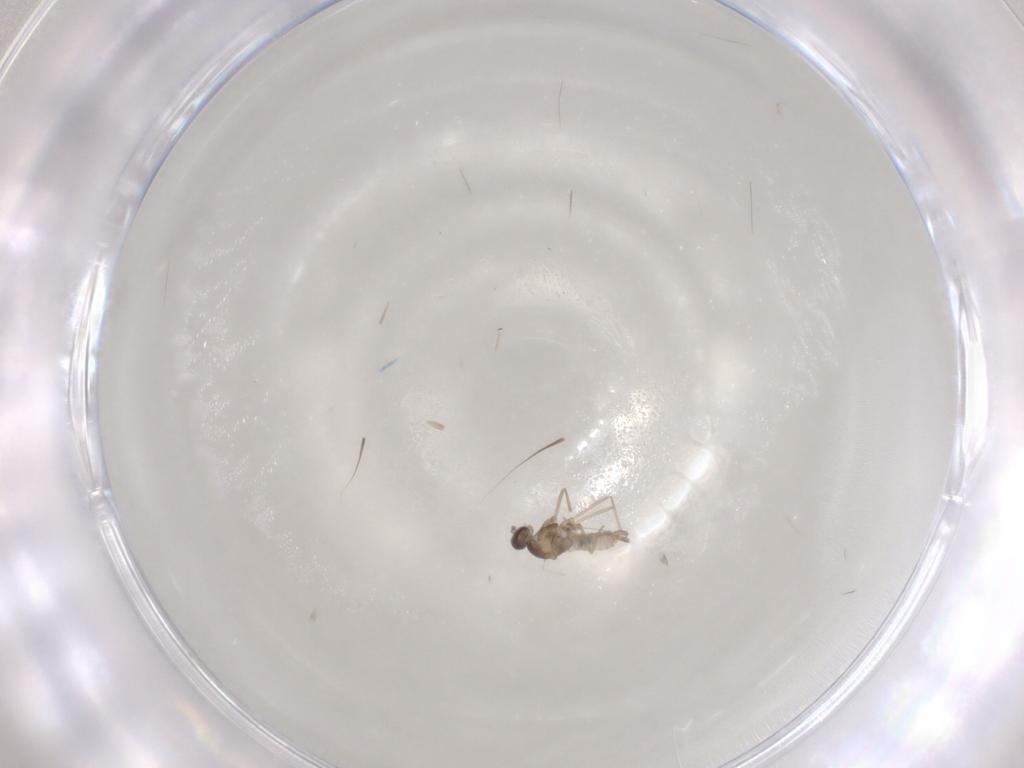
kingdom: Animalia
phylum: Arthropoda
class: Insecta
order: Diptera
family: Cecidomyiidae
